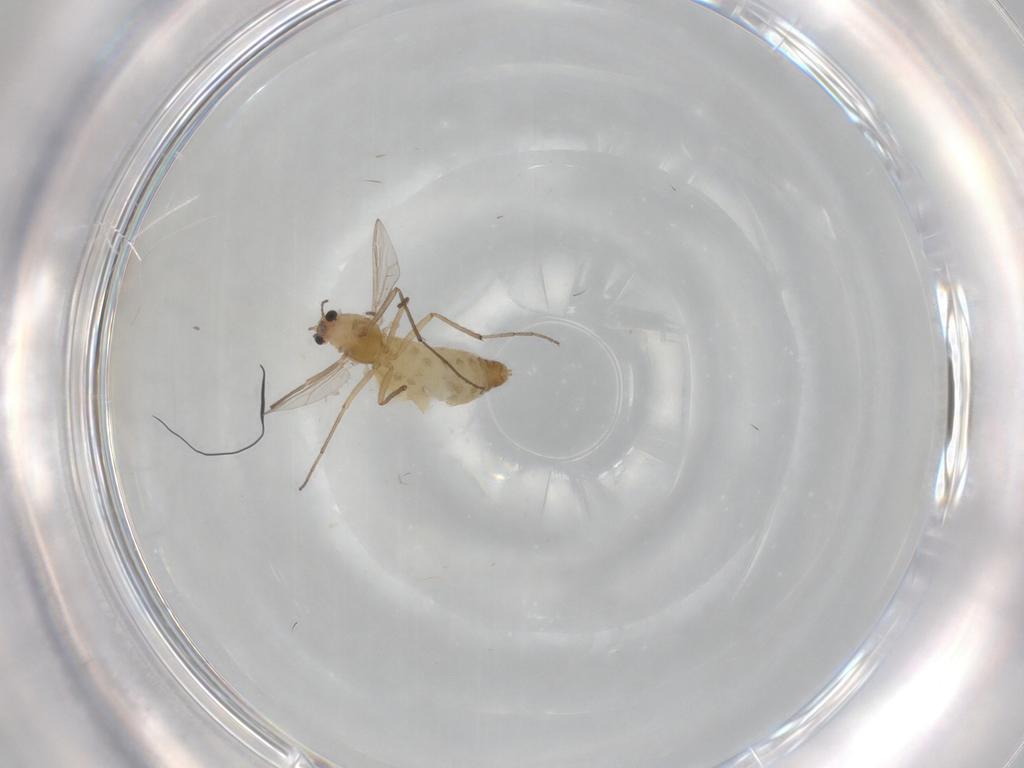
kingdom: Animalia
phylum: Arthropoda
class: Insecta
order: Diptera
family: Chironomidae
